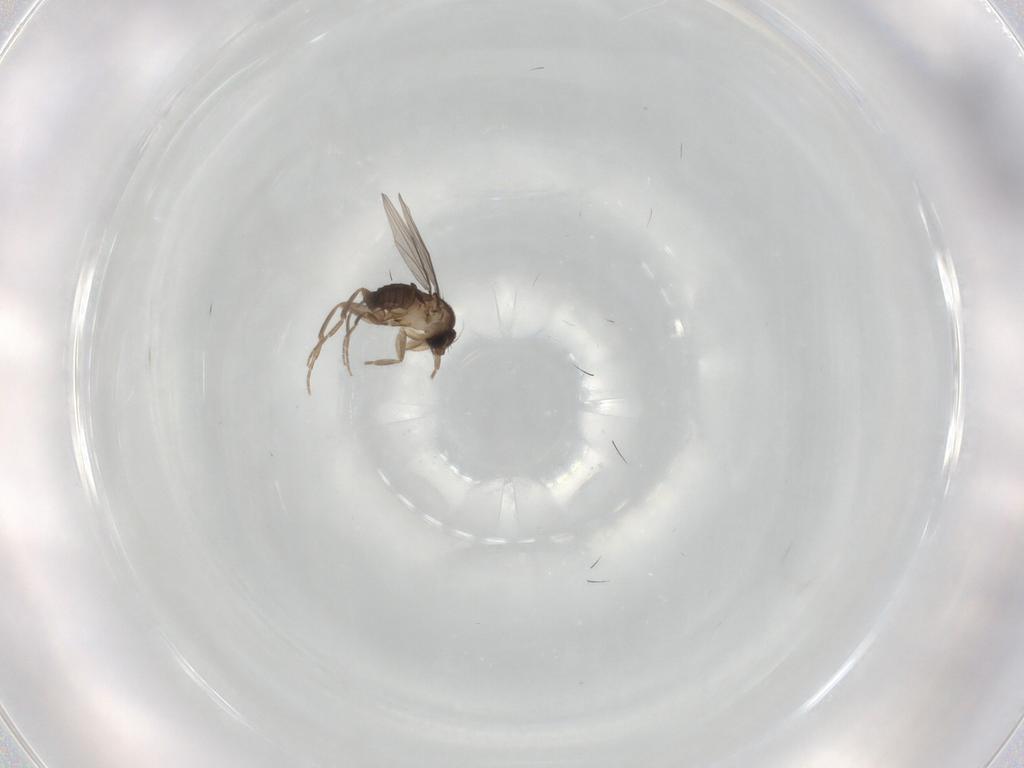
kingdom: Animalia
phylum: Arthropoda
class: Insecta
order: Diptera
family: Phoridae
